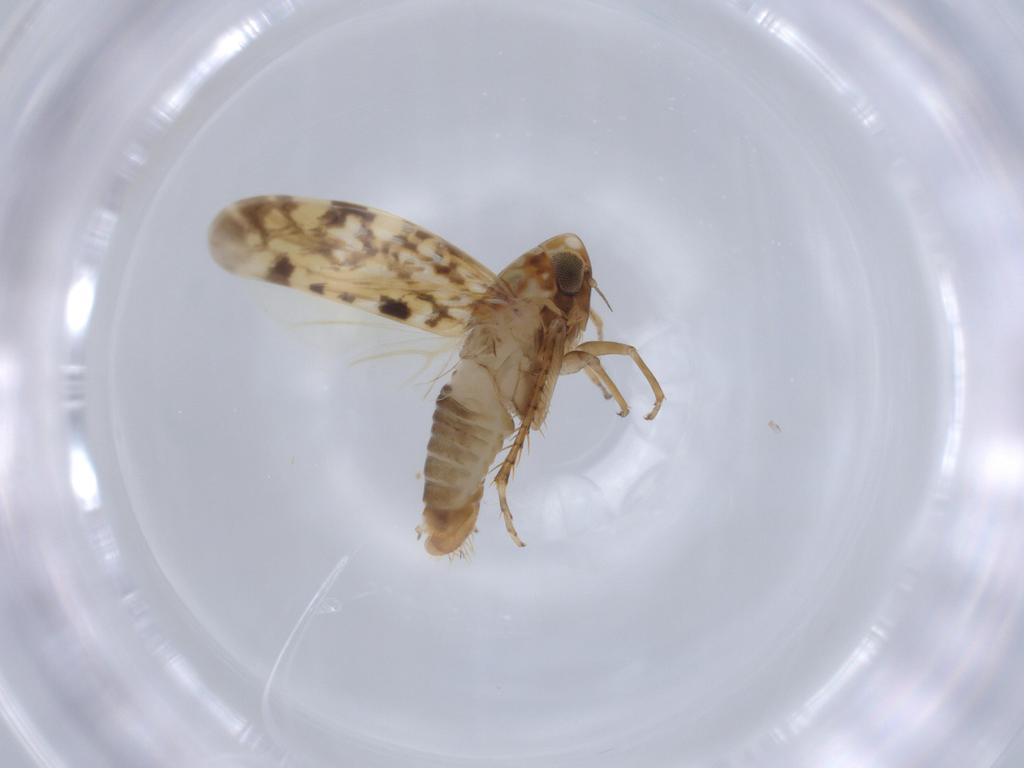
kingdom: Animalia
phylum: Arthropoda
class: Insecta
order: Hemiptera
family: Cicadellidae
